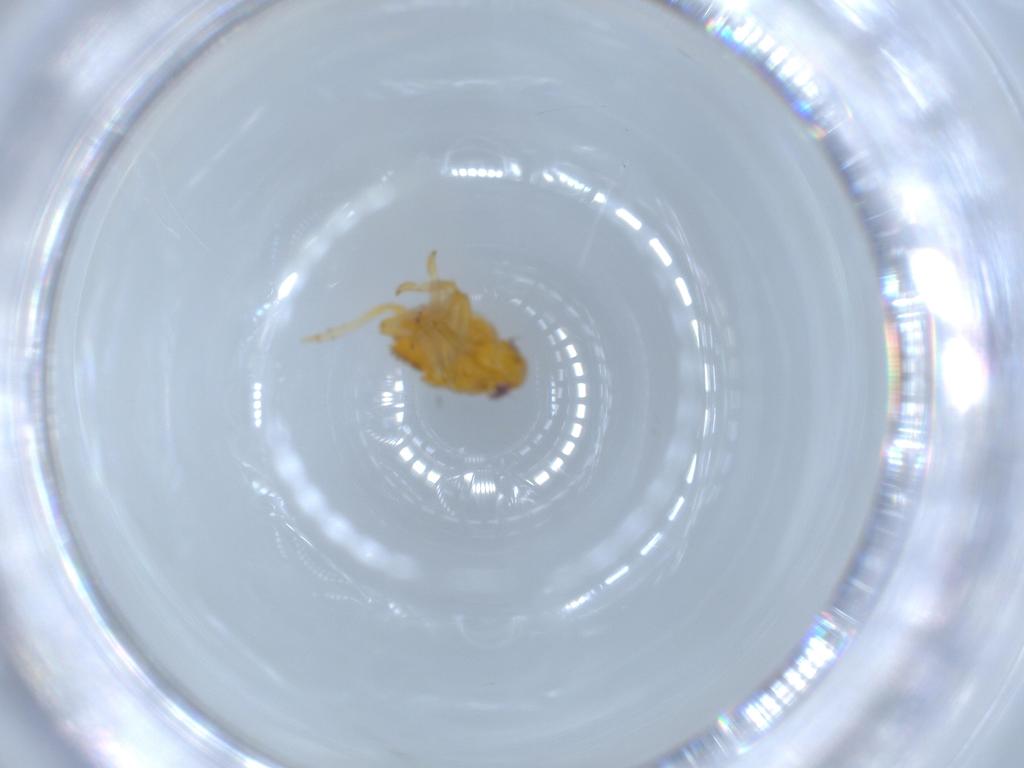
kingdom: Animalia
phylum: Arthropoda
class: Insecta
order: Hemiptera
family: Issidae
